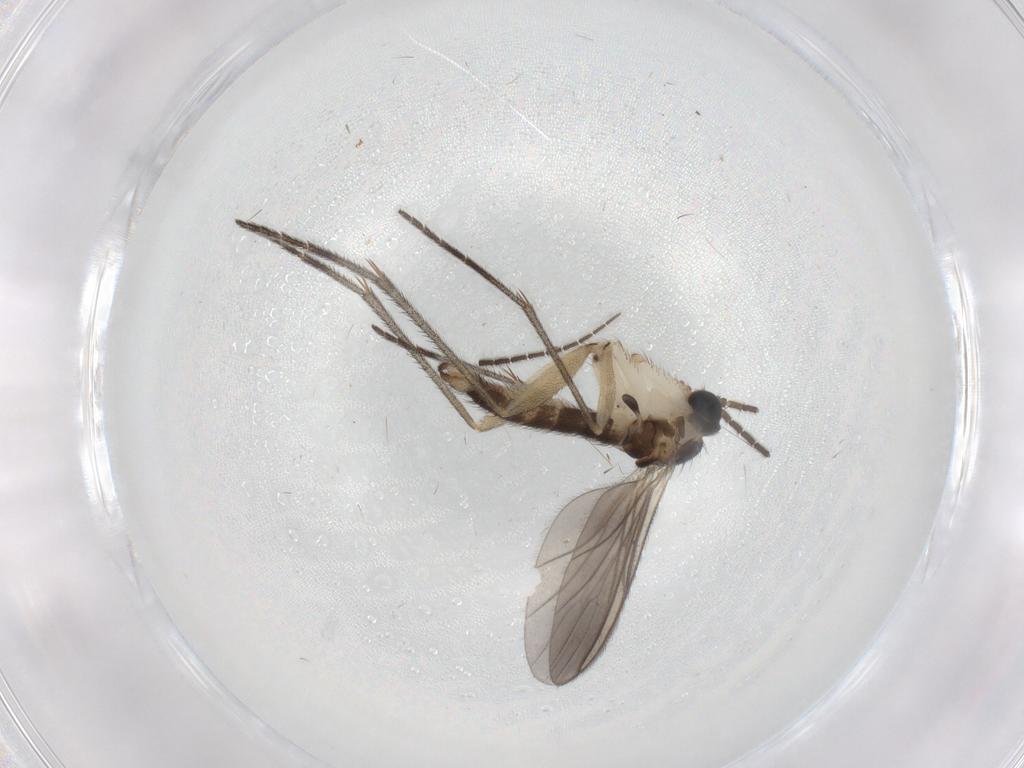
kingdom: Animalia
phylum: Arthropoda
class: Insecta
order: Diptera
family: Sciaridae
